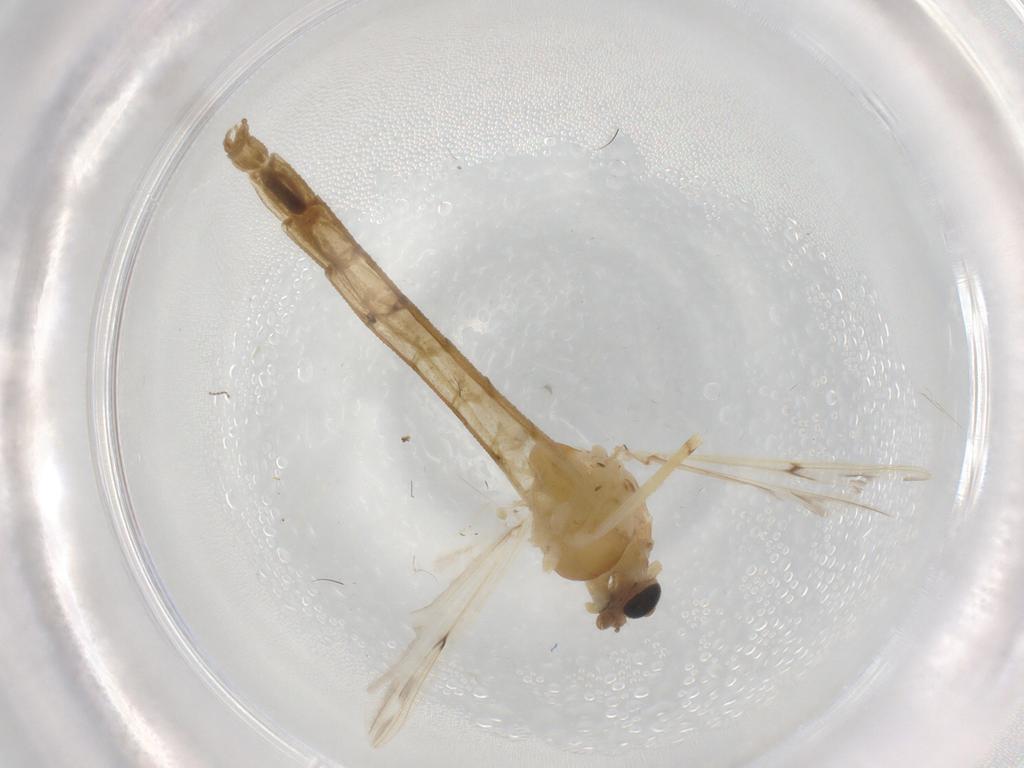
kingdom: Animalia
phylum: Arthropoda
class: Insecta
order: Diptera
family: Chironomidae
